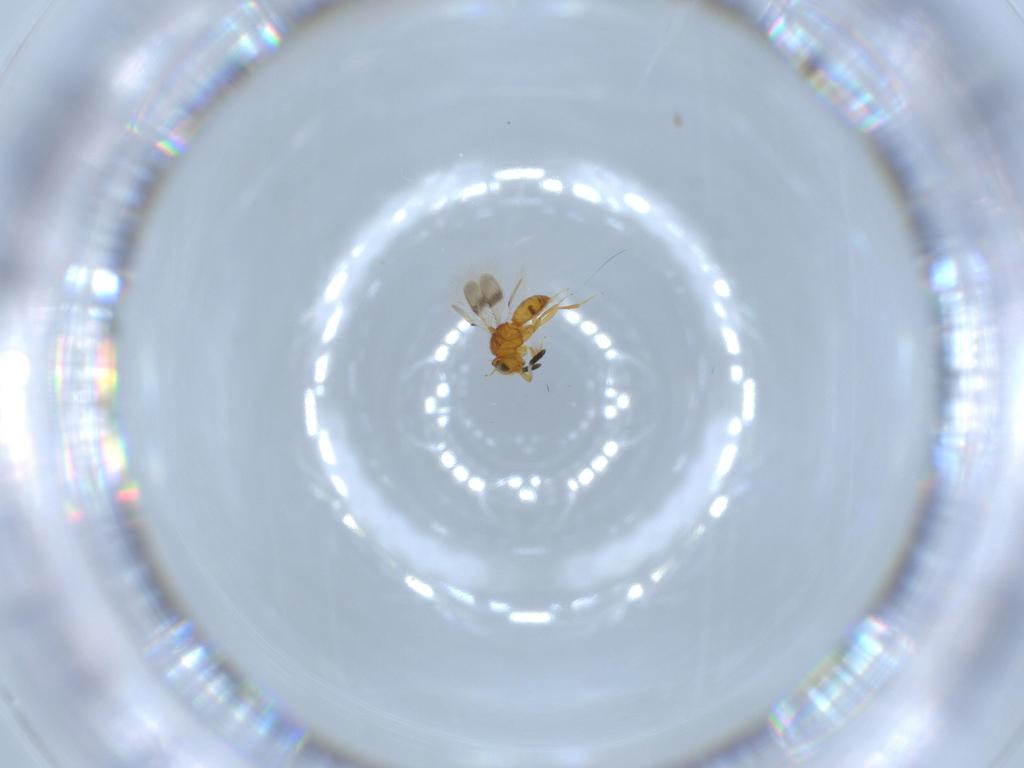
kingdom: Animalia
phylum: Arthropoda
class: Insecta
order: Hymenoptera
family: Scelionidae
